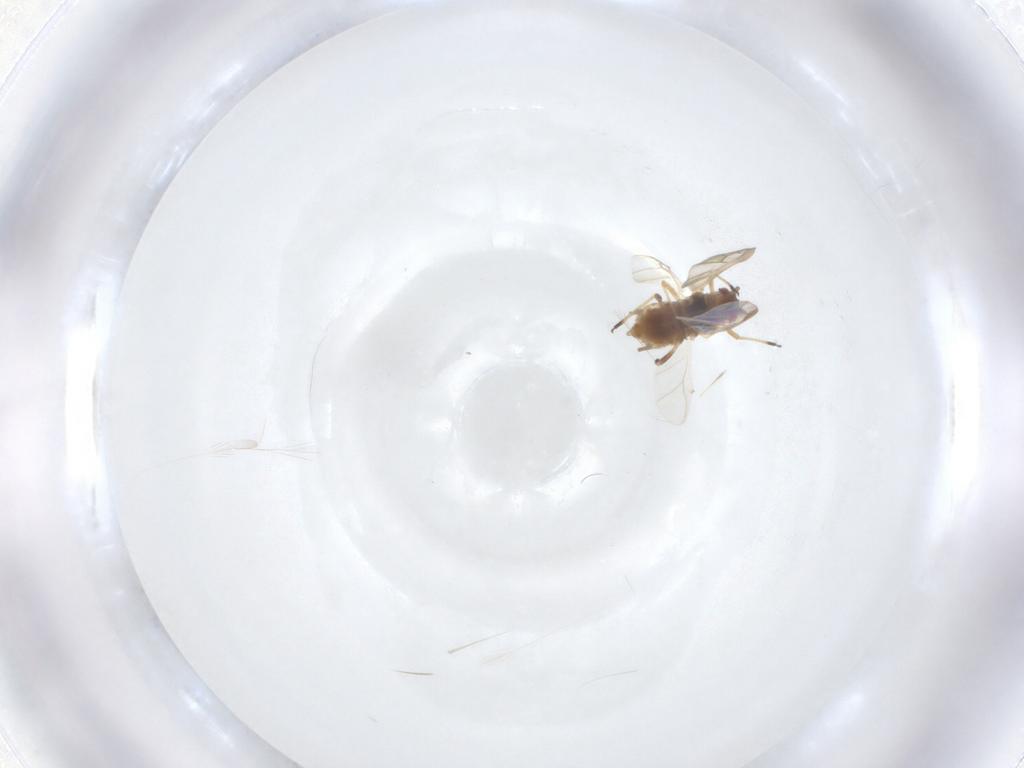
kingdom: Animalia
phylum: Arthropoda
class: Insecta
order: Hemiptera
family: Aphididae
